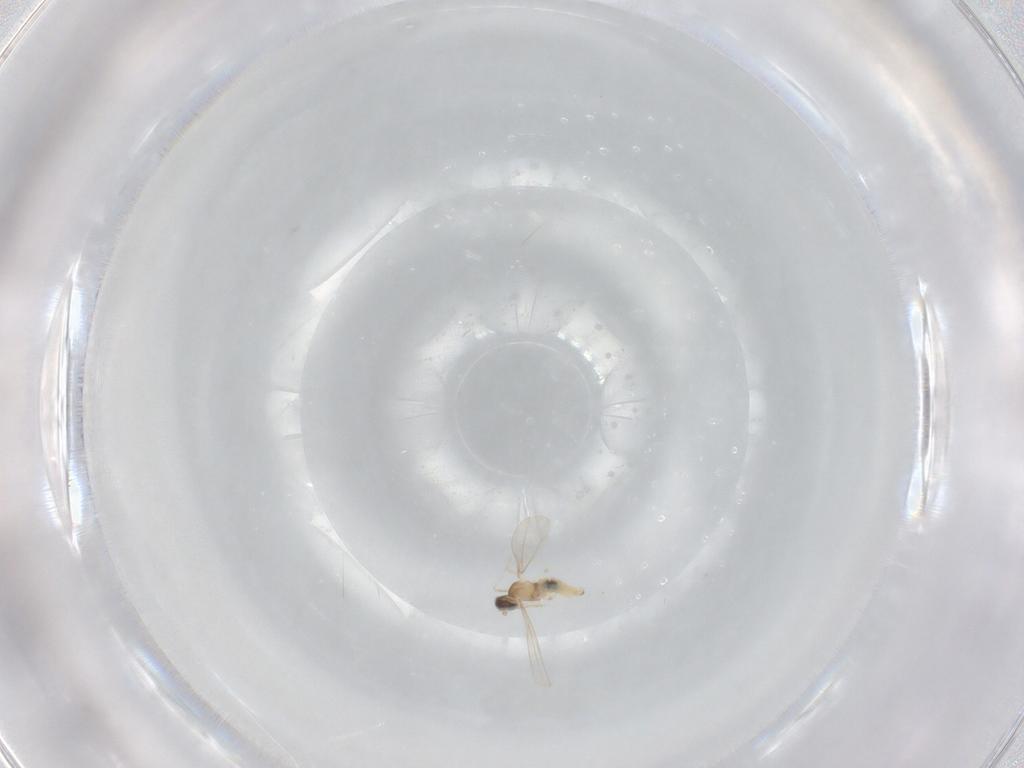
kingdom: Animalia
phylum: Arthropoda
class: Insecta
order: Diptera
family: Cecidomyiidae
